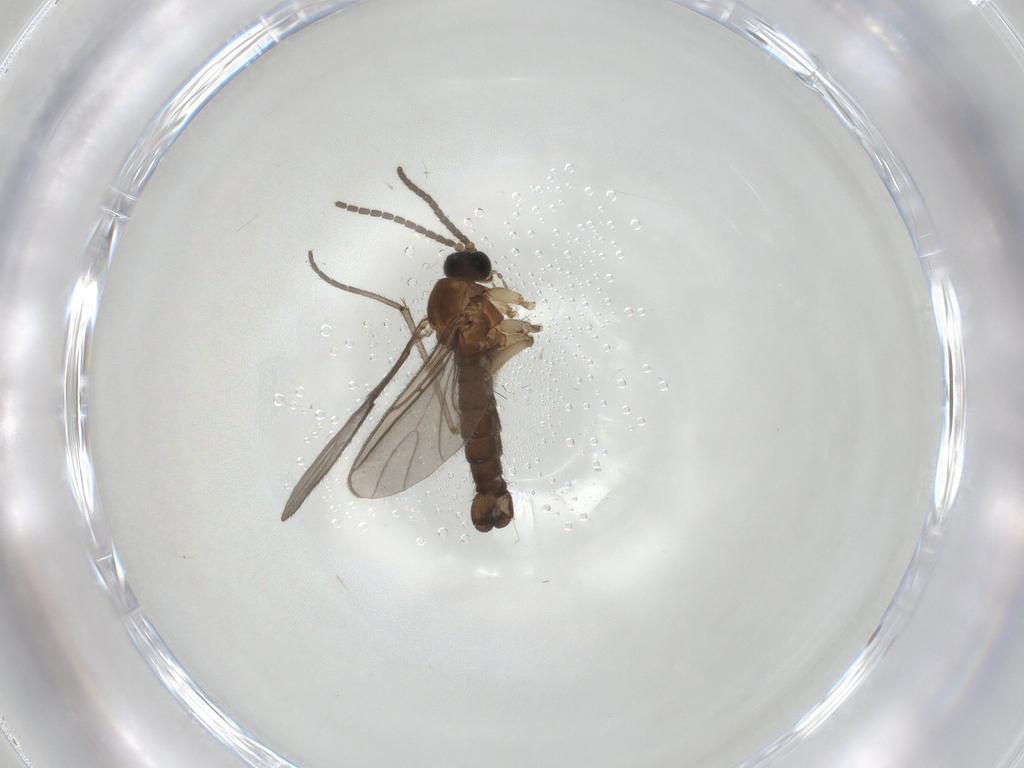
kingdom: Animalia
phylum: Arthropoda
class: Insecta
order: Diptera
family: Sciaridae
